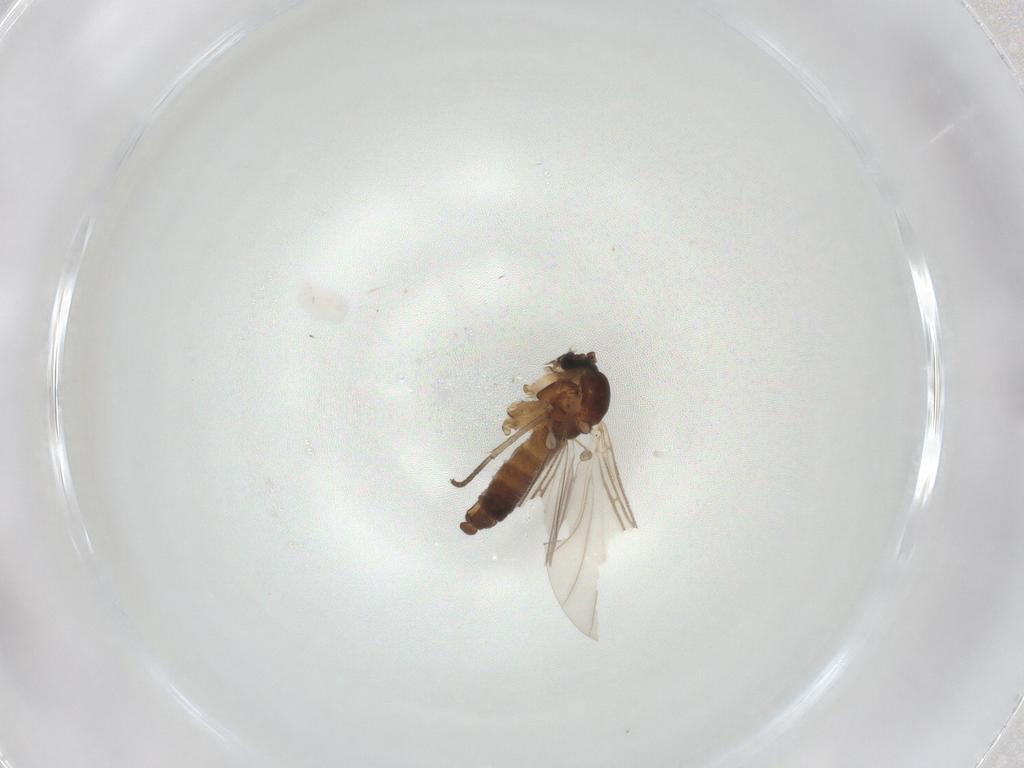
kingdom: Animalia
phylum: Arthropoda
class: Insecta
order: Diptera
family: Sciaridae
